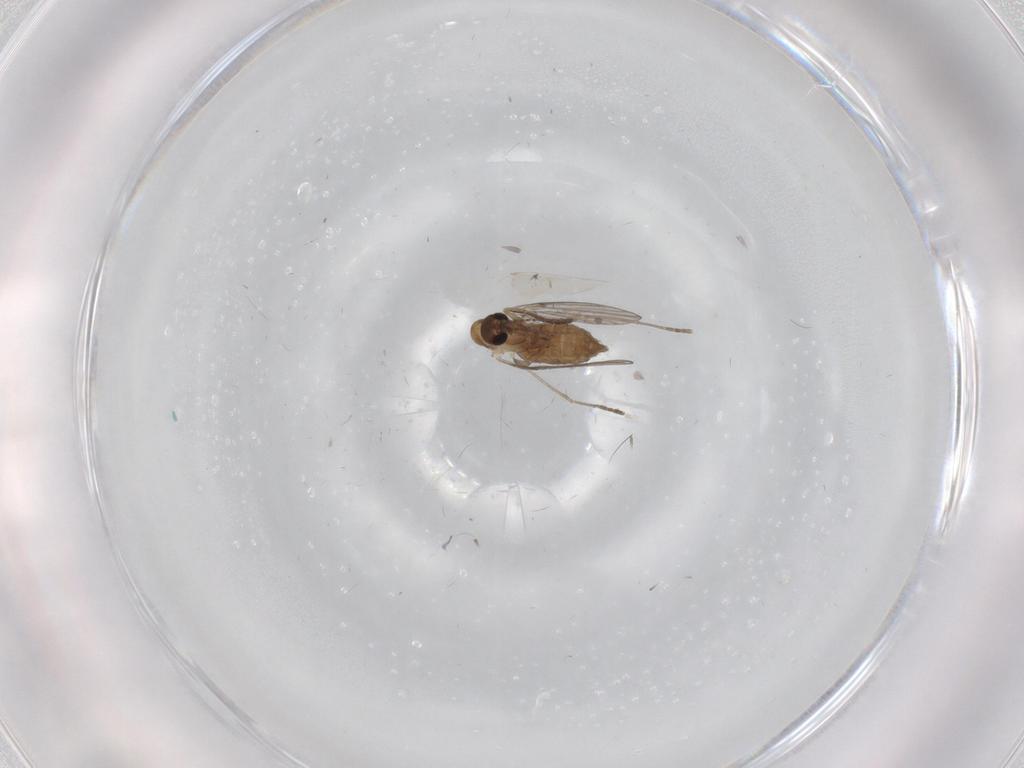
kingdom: Animalia
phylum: Arthropoda
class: Insecta
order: Diptera
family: Psychodidae
